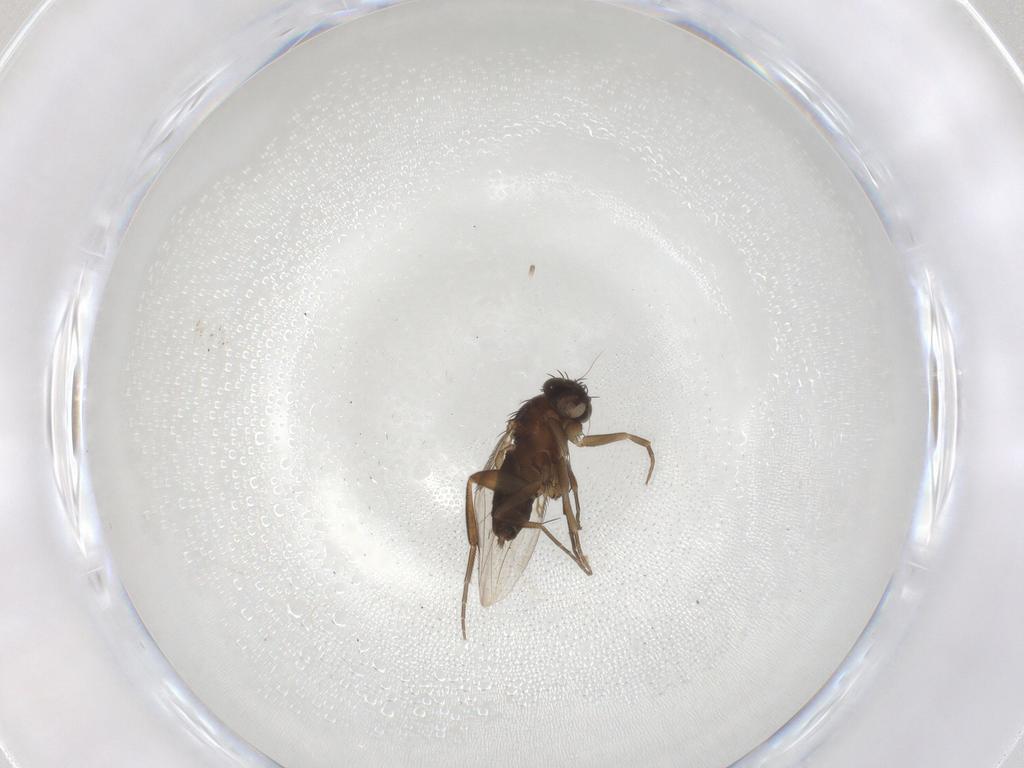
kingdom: Animalia
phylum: Arthropoda
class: Insecta
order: Diptera
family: Phoridae
